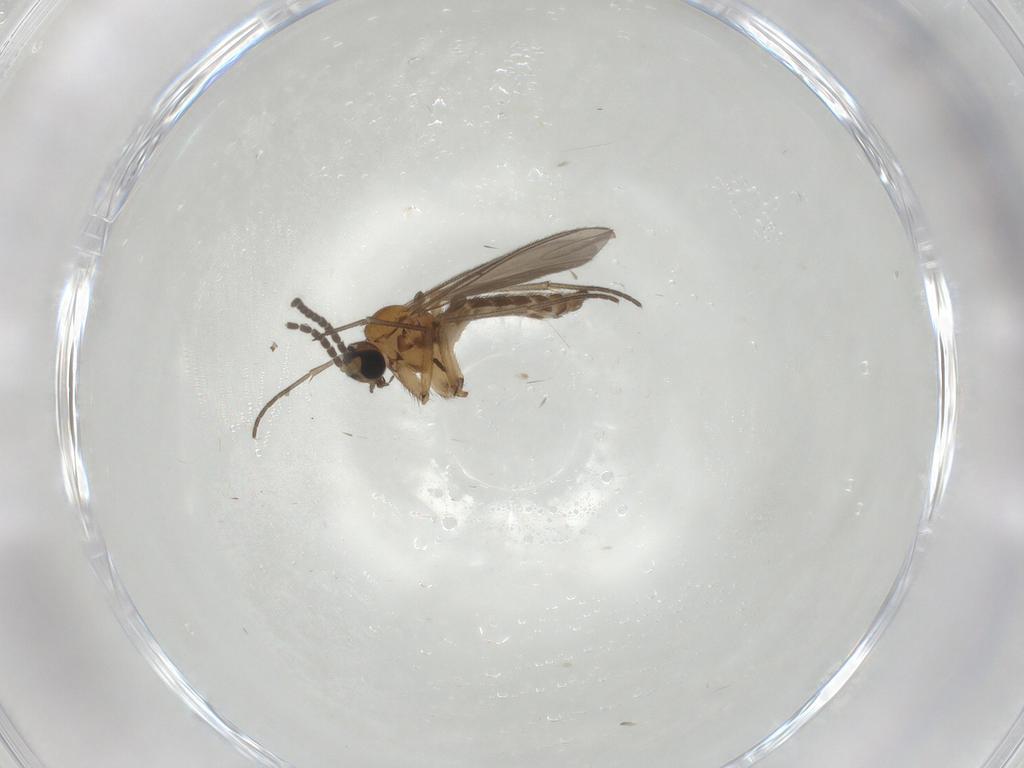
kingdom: Animalia
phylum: Arthropoda
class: Insecta
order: Diptera
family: Sciaridae
